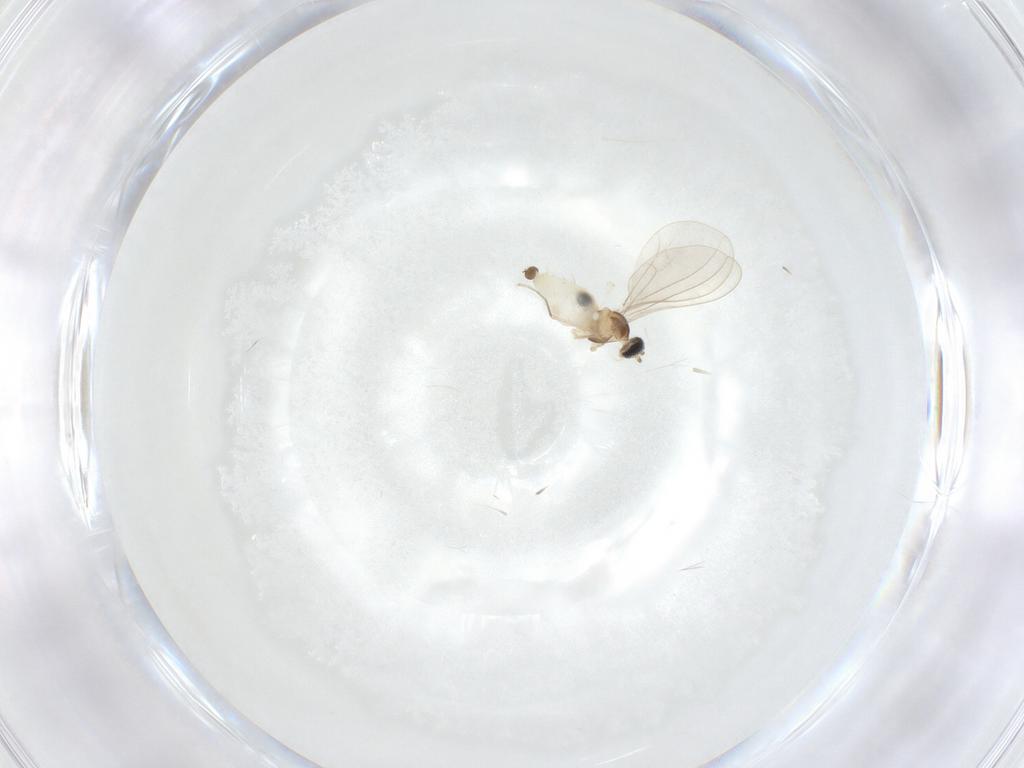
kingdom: Animalia
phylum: Arthropoda
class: Insecta
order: Diptera
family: Cecidomyiidae
